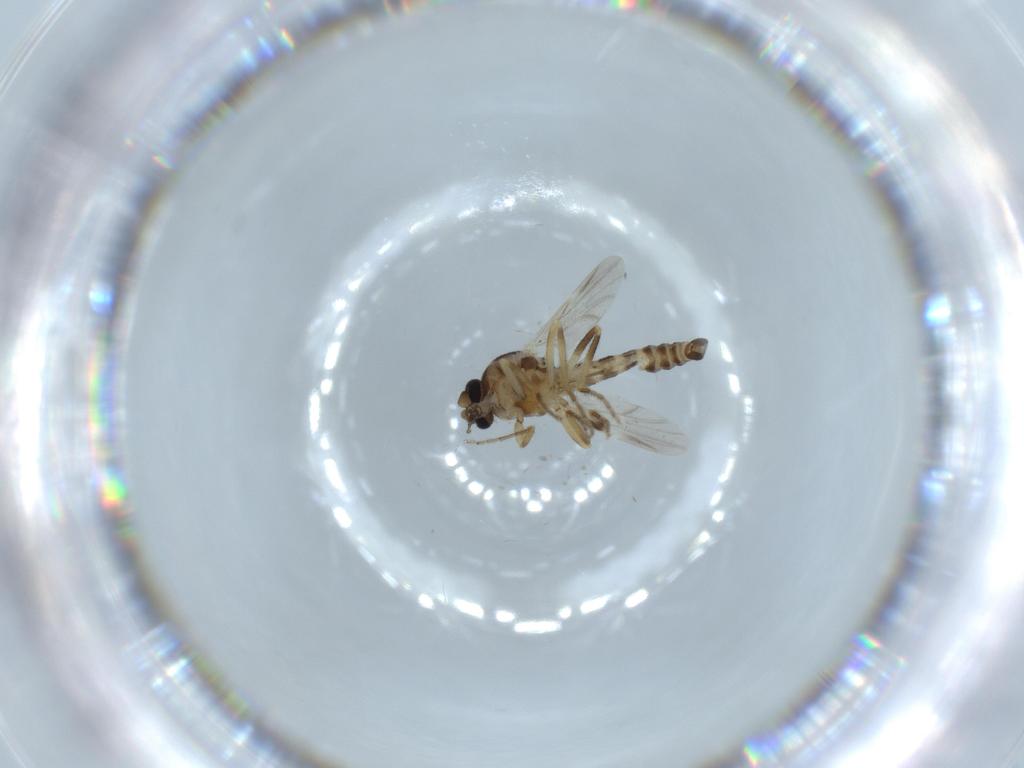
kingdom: Animalia
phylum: Arthropoda
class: Insecta
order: Diptera
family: Ceratopogonidae
